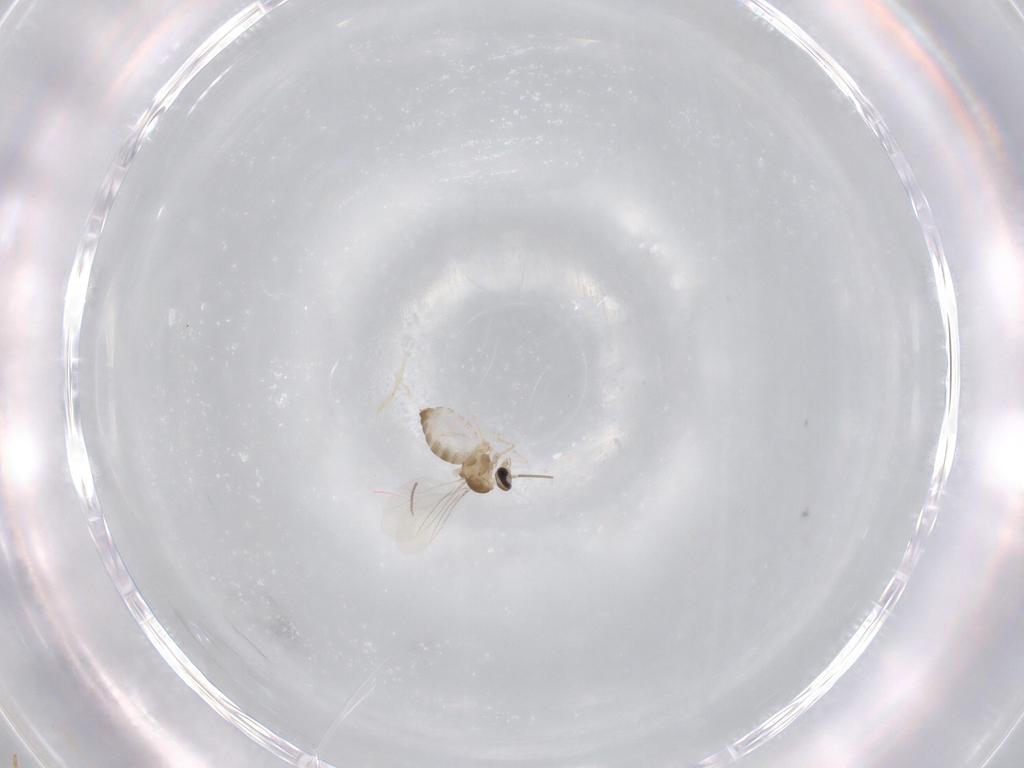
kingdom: Animalia
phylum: Arthropoda
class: Insecta
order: Diptera
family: Cecidomyiidae
